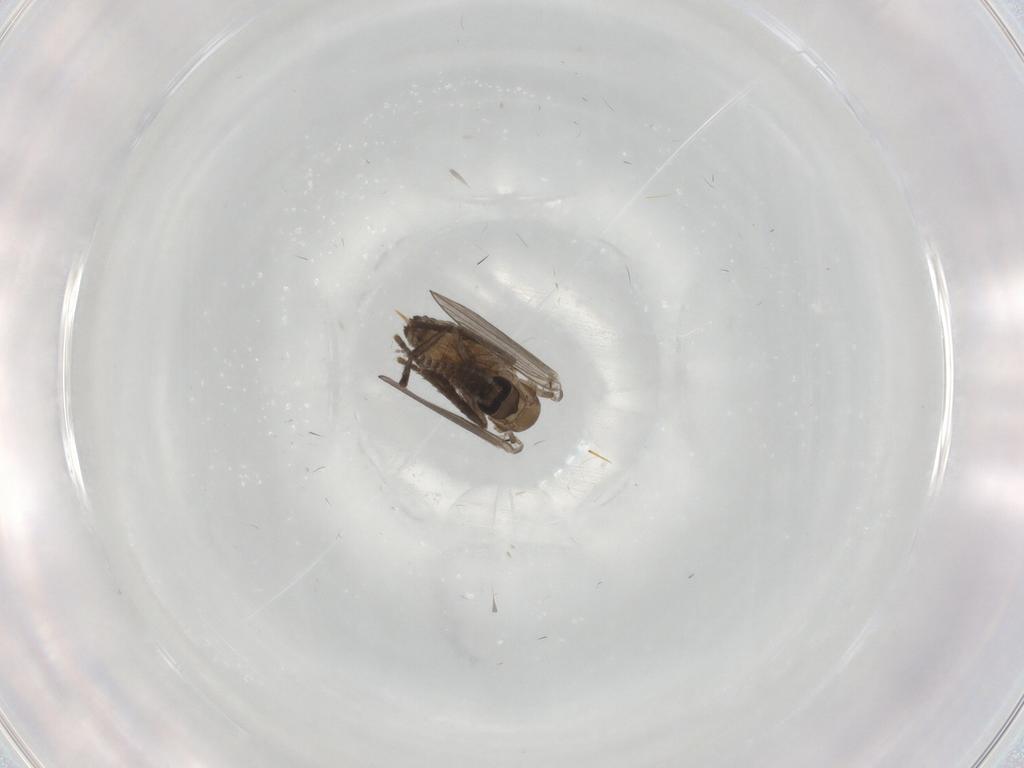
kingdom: Animalia
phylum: Arthropoda
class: Insecta
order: Diptera
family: Psychodidae
